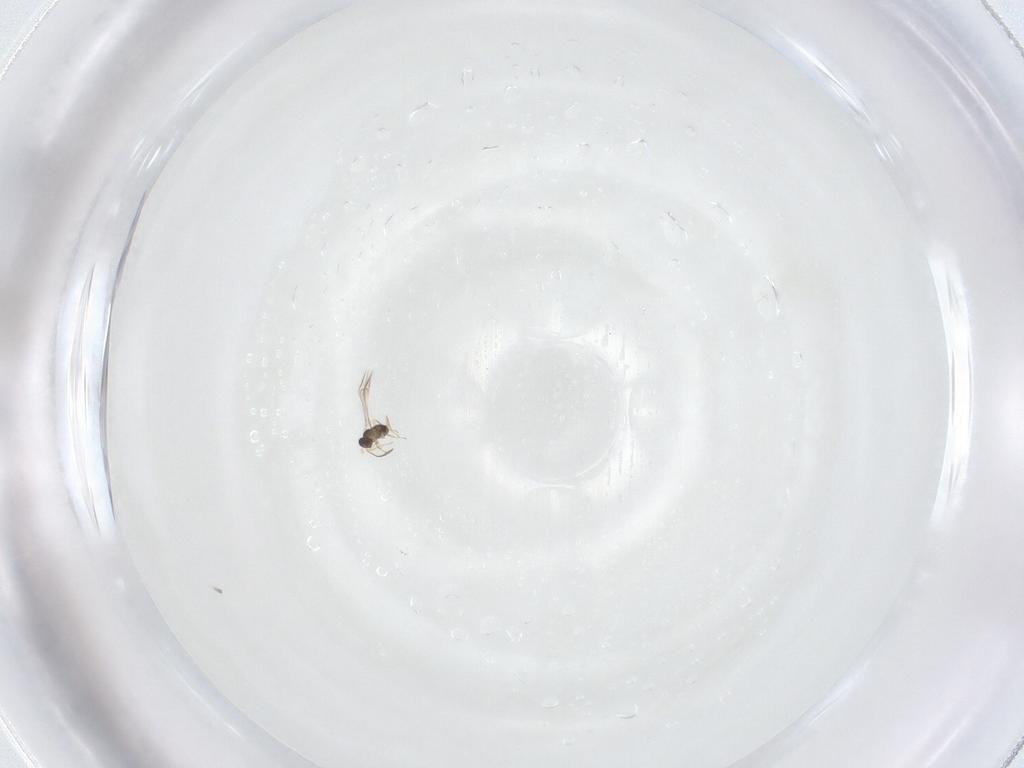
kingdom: Animalia
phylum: Arthropoda
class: Insecta
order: Hymenoptera
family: Mymaridae
